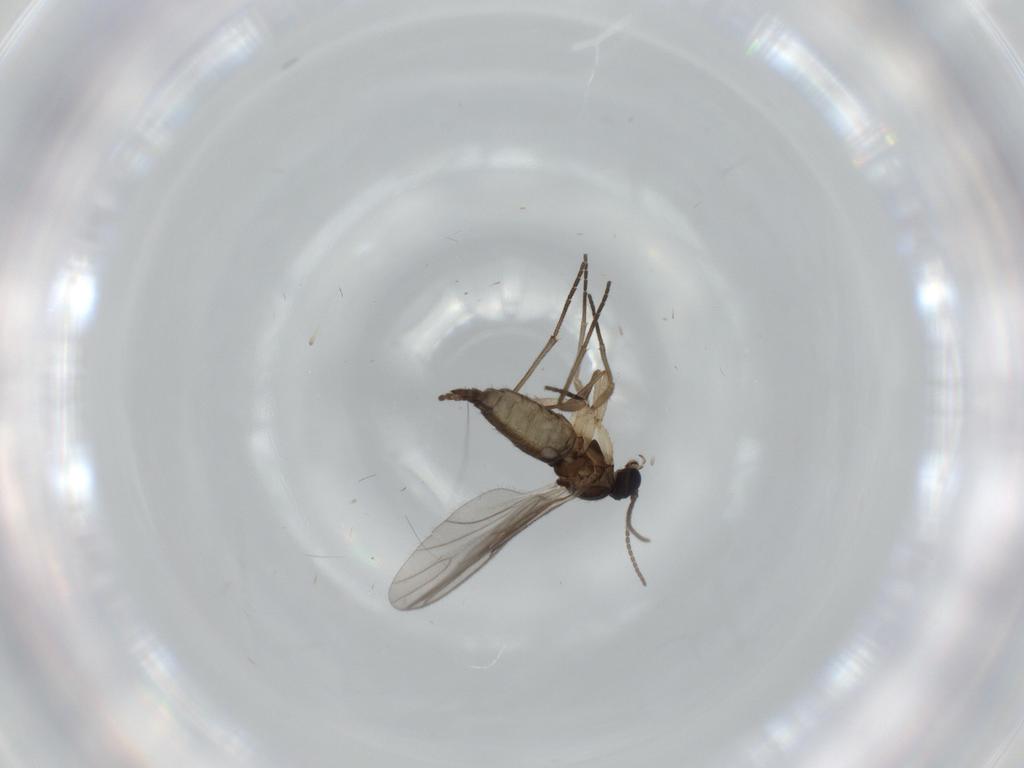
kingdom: Animalia
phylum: Arthropoda
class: Insecta
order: Diptera
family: Sciaridae
